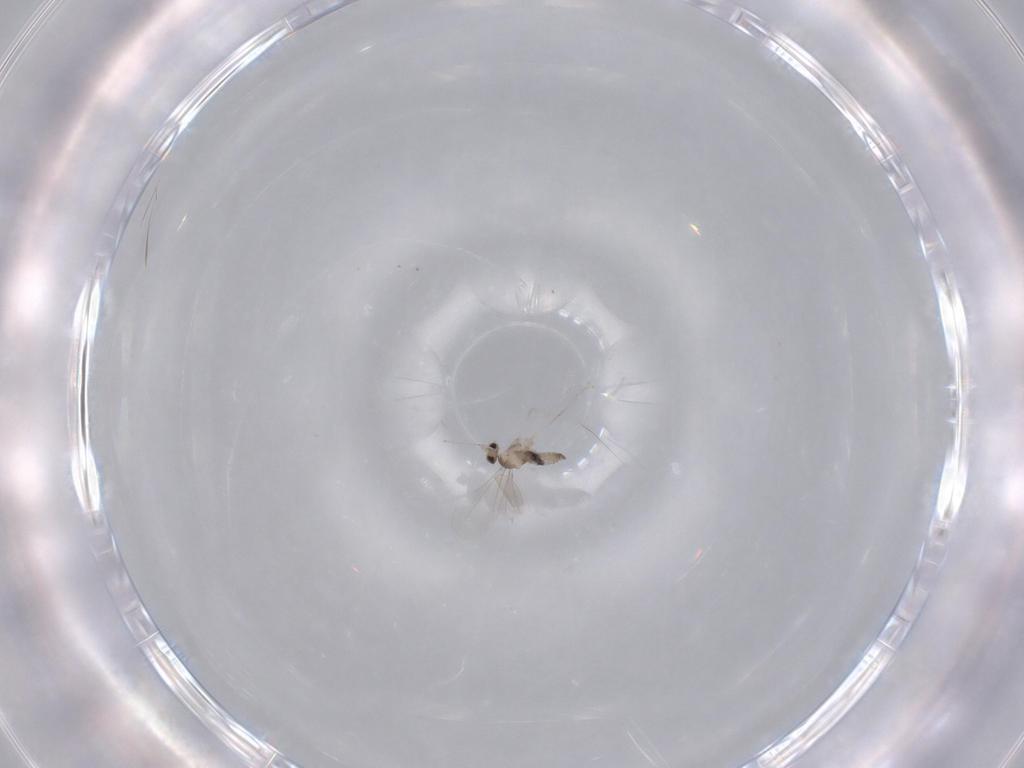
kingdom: Animalia
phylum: Arthropoda
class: Insecta
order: Diptera
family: Cecidomyiidae
